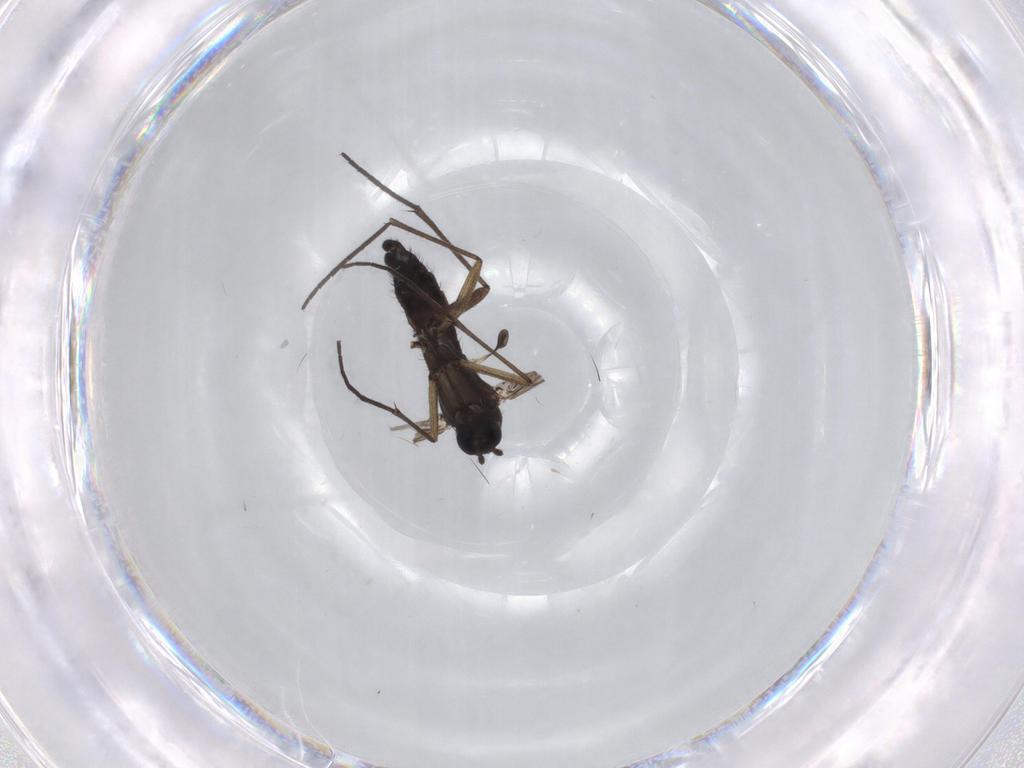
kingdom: Animalia
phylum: Arthropoda
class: Insecta
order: Diptera
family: Sciaridae
